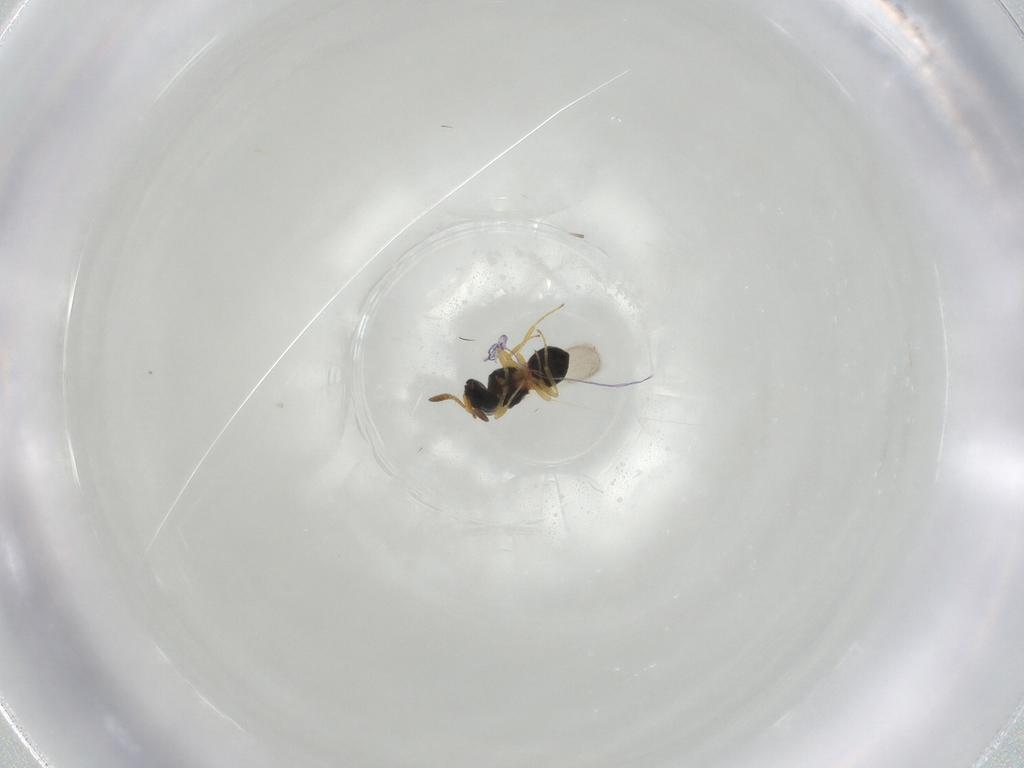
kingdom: Animalia
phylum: Arthropoda
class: Insecta
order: Hymenoptera
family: Scelionidae
